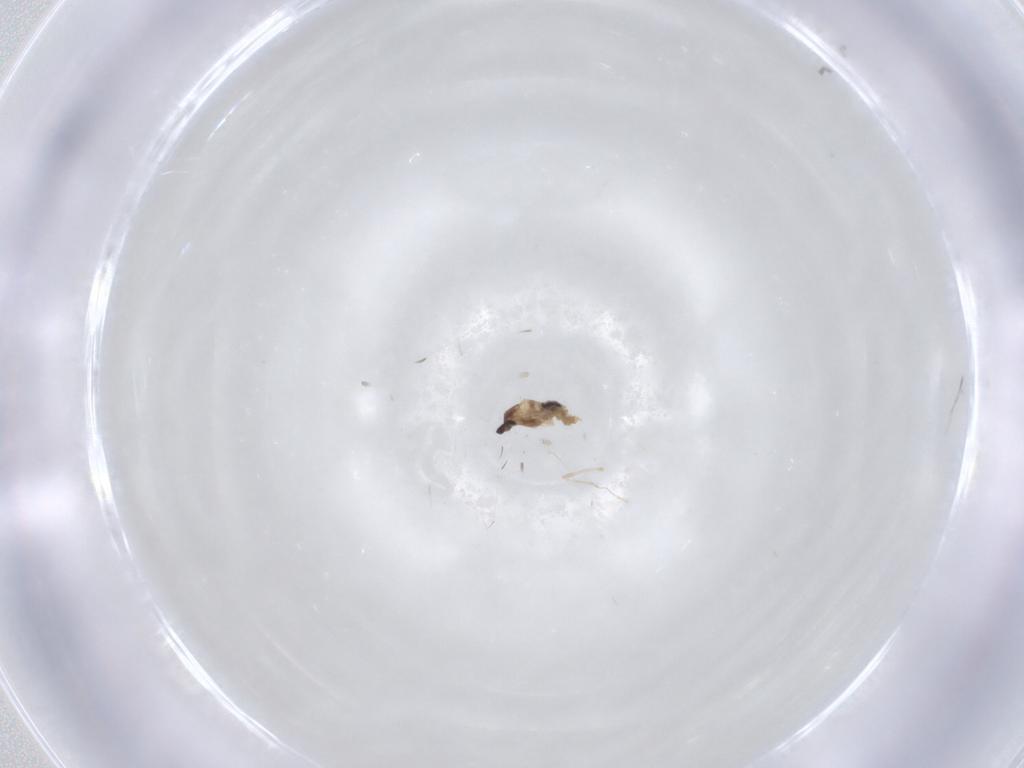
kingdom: Animalia
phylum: Arthropoda
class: Insecta
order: Diptera
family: Cecidomyiidae
